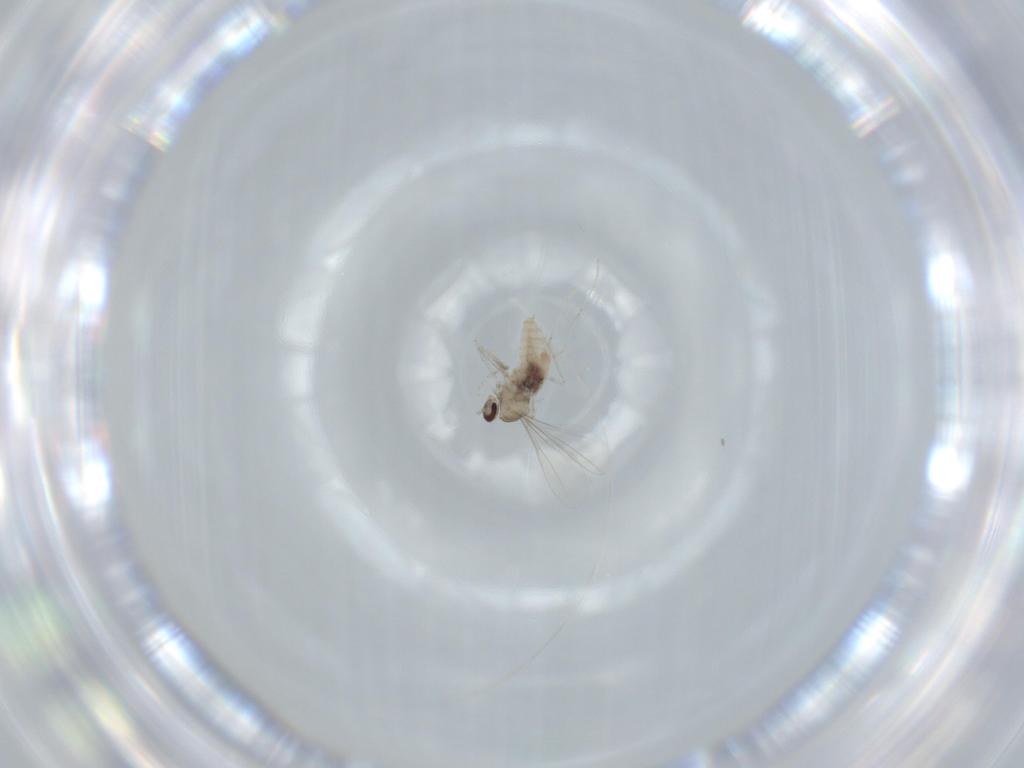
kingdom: Animalia
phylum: Arthropoda
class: Insecta
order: Diptera
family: Cecidomyiidae
